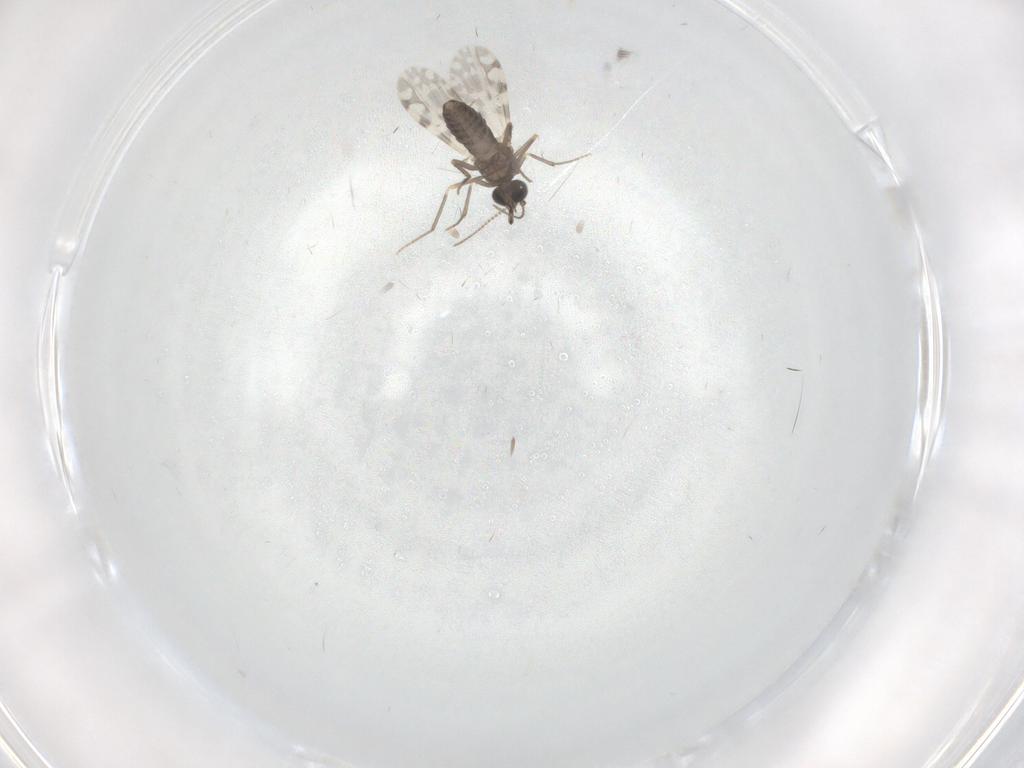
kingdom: Animalia
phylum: Arthropoda
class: Insecta
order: Diptera
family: Ceratopogonidae
